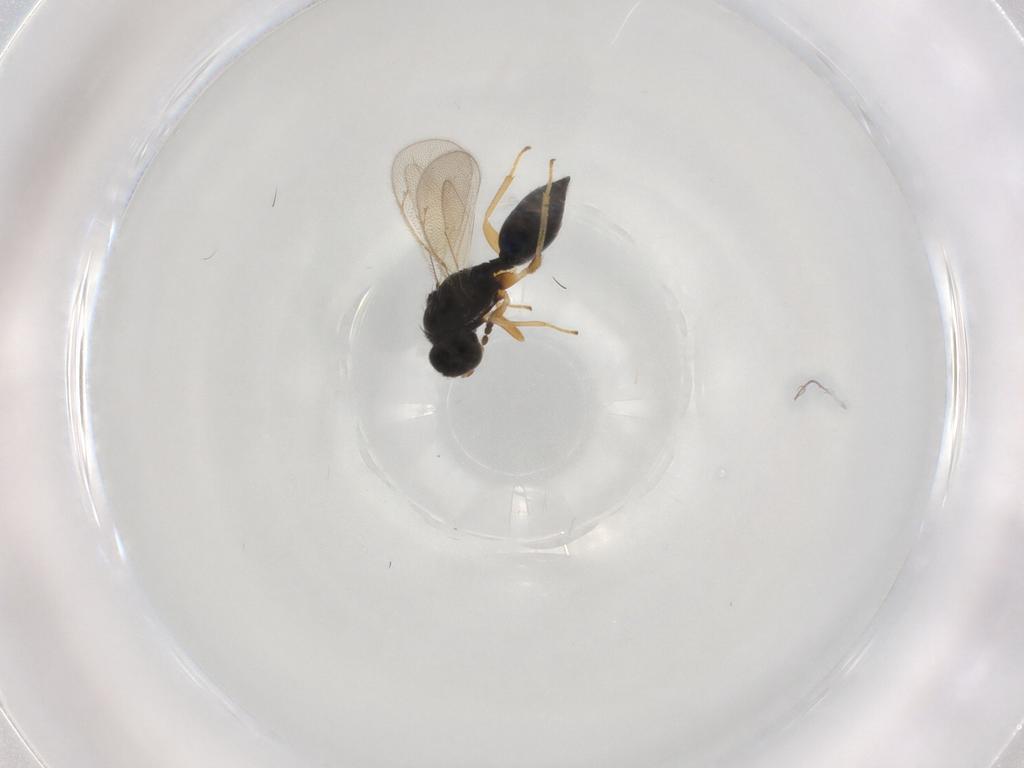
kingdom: Animalia
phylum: Arthropoda
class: Insecta
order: Hymenoptera
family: Eulophidae
